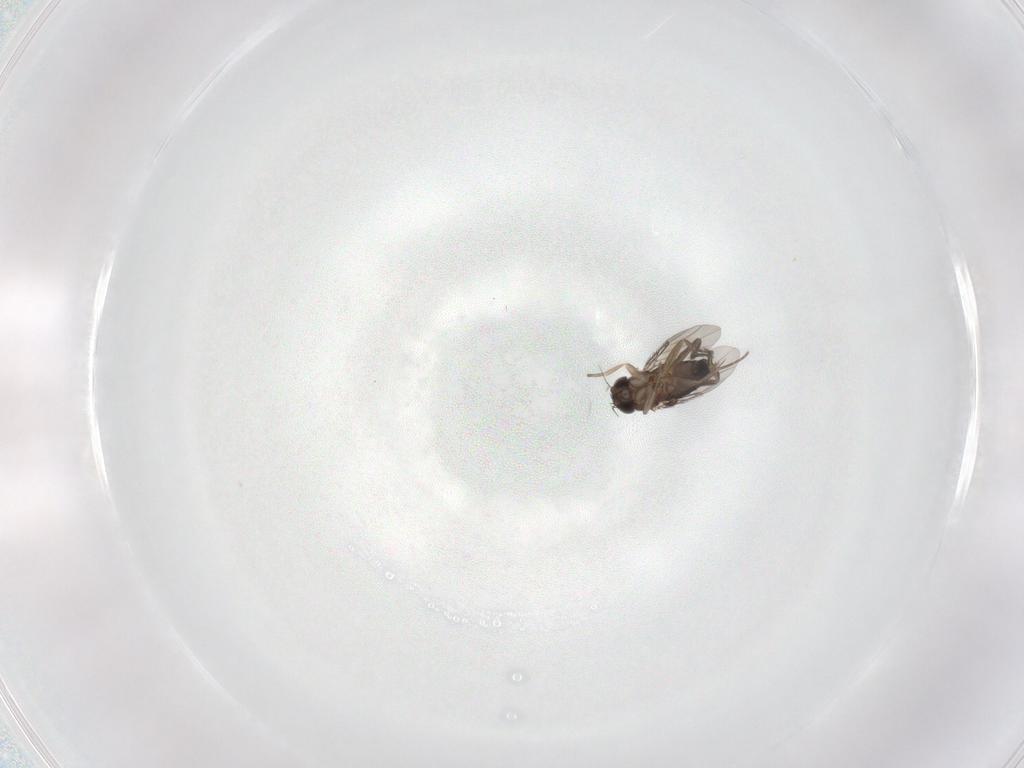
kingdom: Animalia
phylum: Arthropoda
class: Insecta
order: Diptera
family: Phoridae
